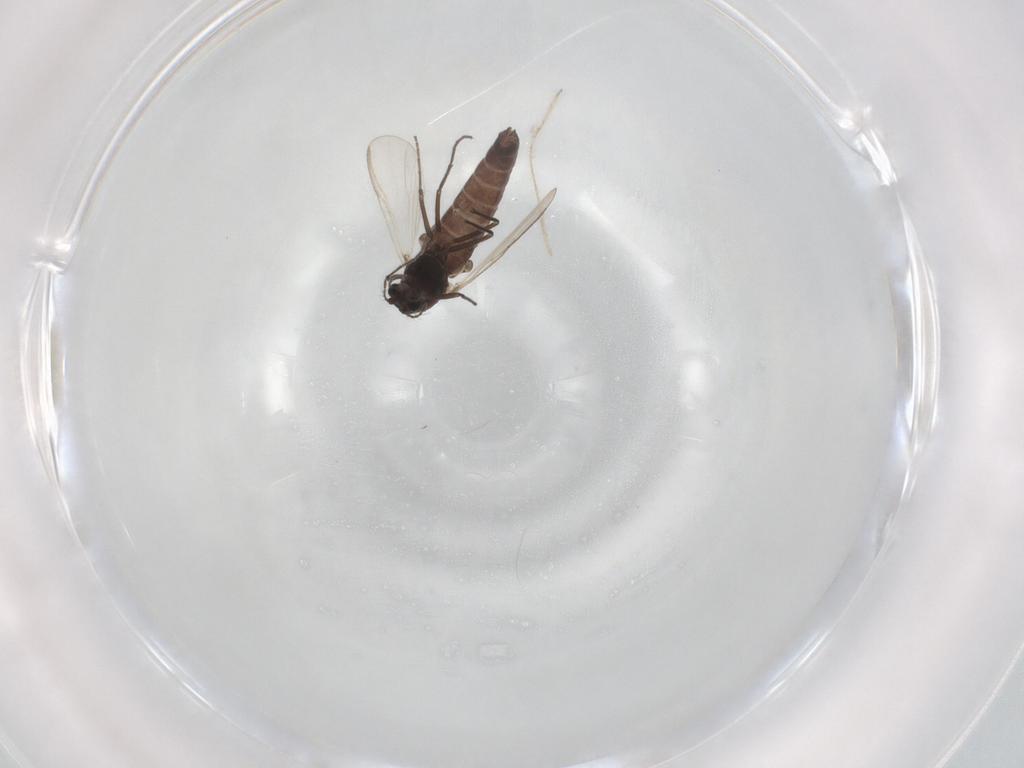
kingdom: Animalia
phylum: Arthropoda
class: Insecta
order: Diptera
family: Chironomidae
